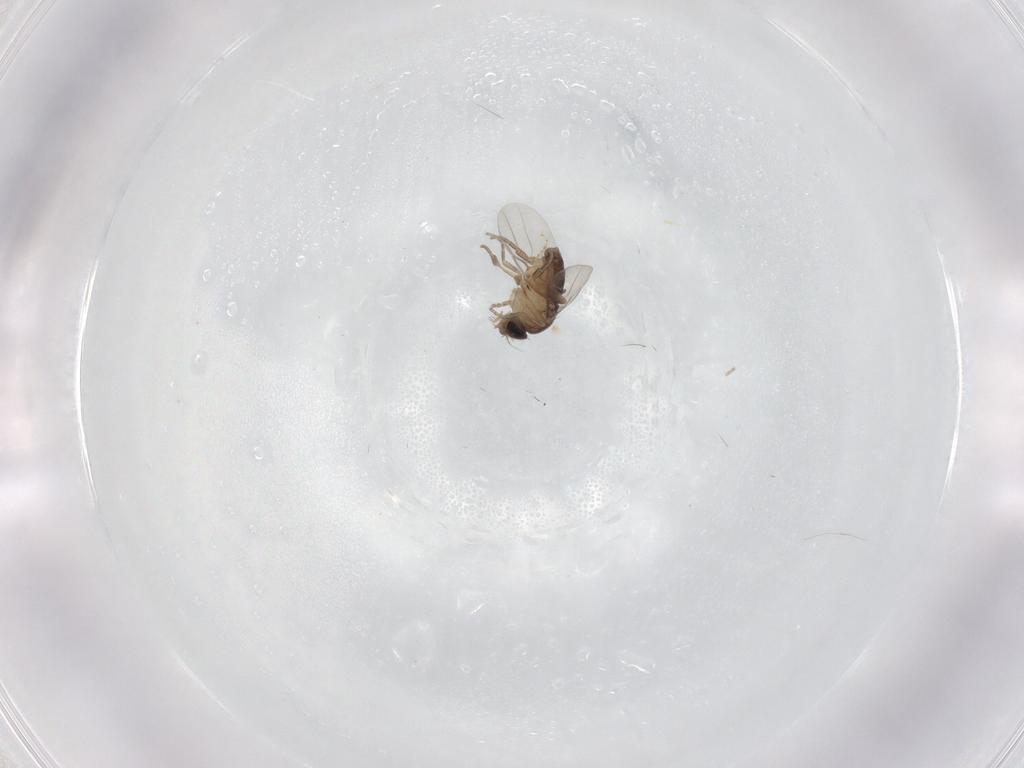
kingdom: Animalia
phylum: Arthropoda
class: Insecta
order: Diptera
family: Phoridae
